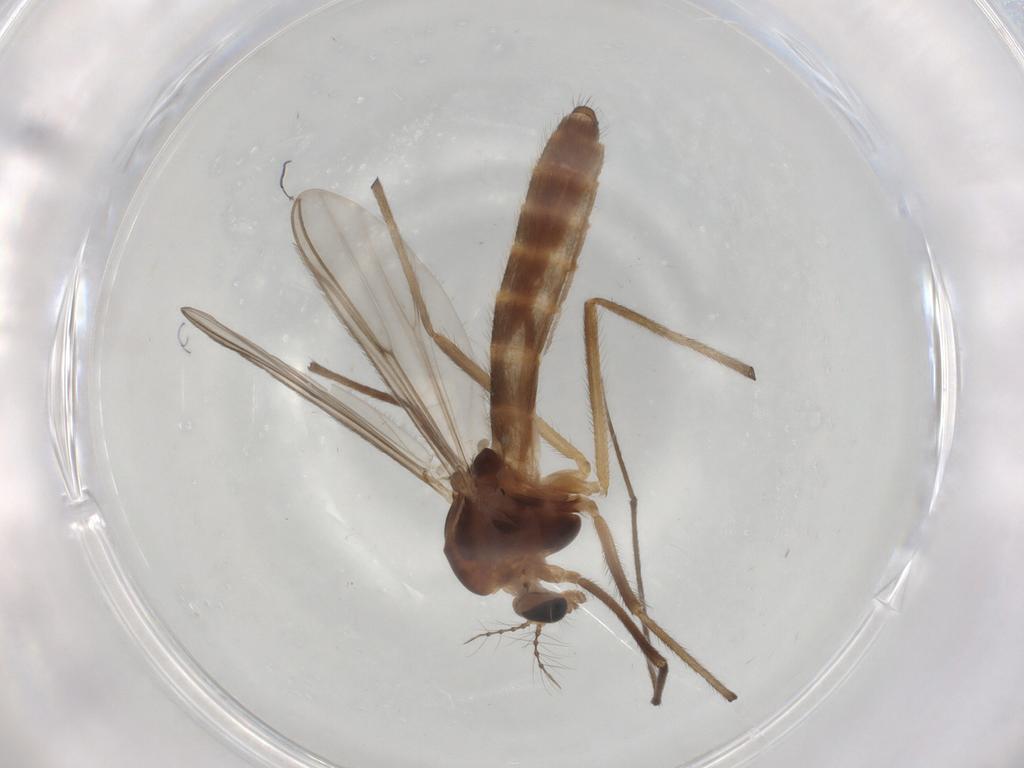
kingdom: Animalia
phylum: Arthropoda
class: Insecta
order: Diptera
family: Chironomidae
